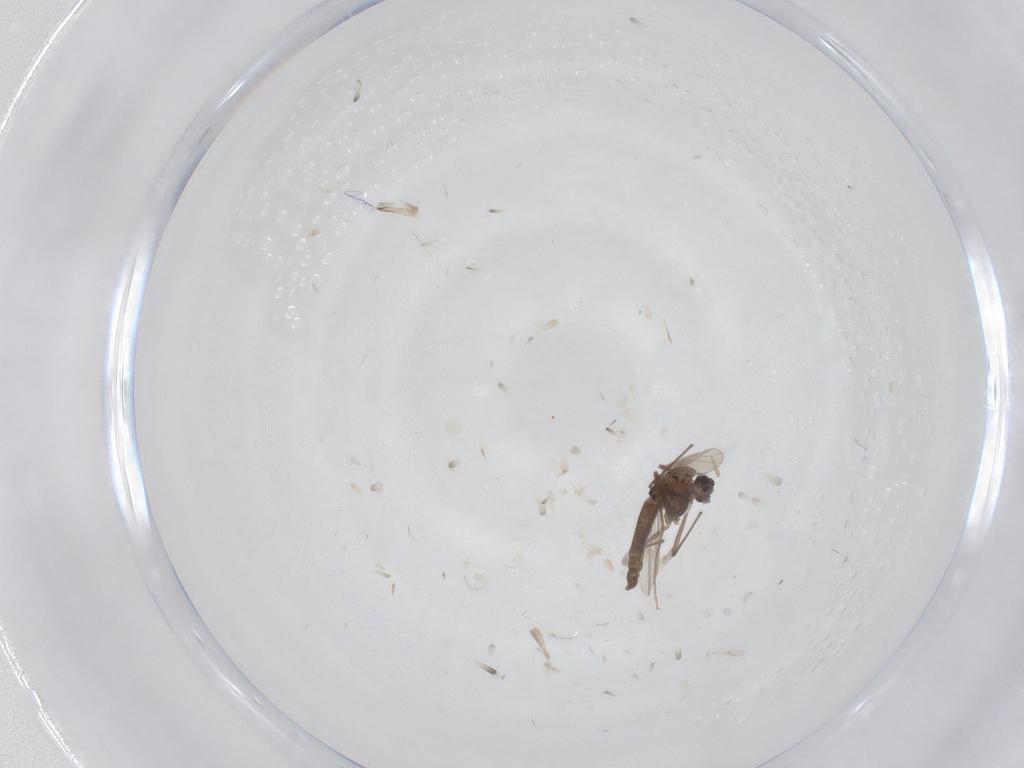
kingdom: Animalia
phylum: Arthropoda
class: Insecta
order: Diptera
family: Chironomidae
